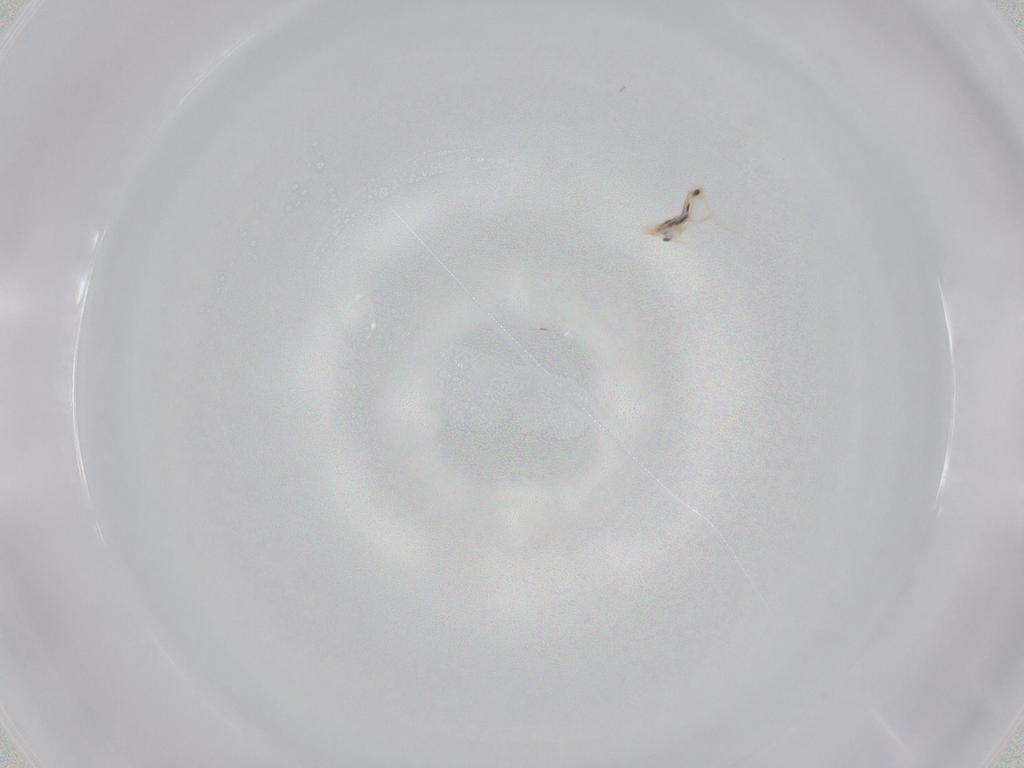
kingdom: Animalia
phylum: Arthropoda
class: Collembola
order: Entomobryomorpha
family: Entomobryidae
